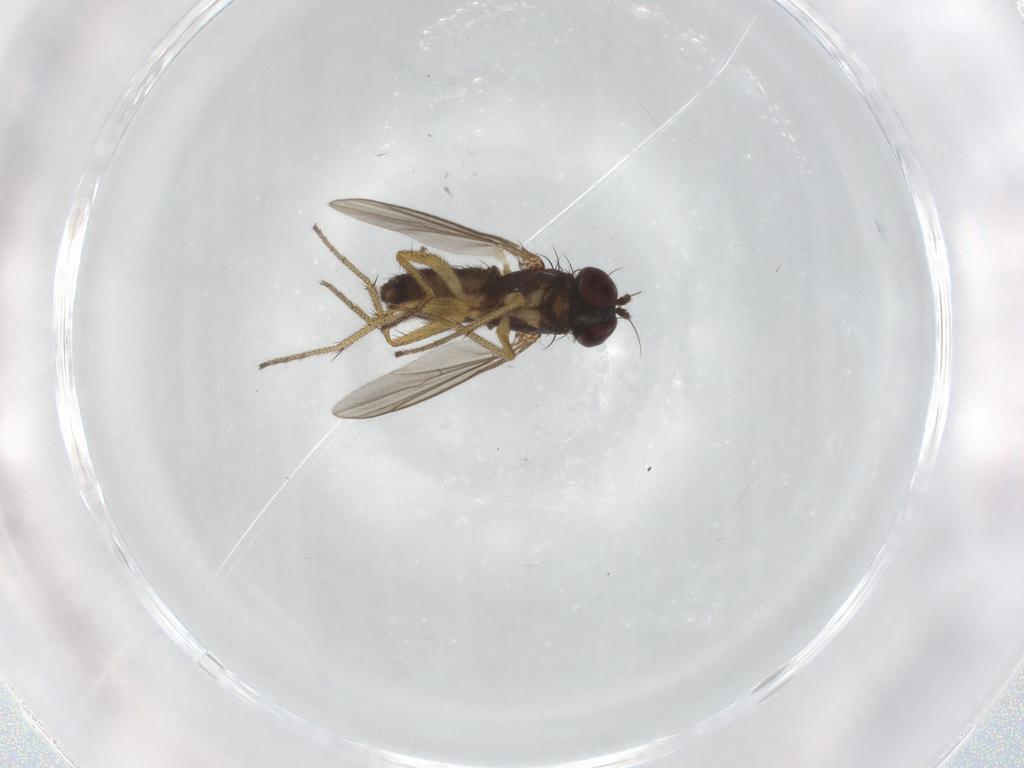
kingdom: Animalia
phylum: Arthropoda
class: Insecta
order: Diptera
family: Dolichopodidae
